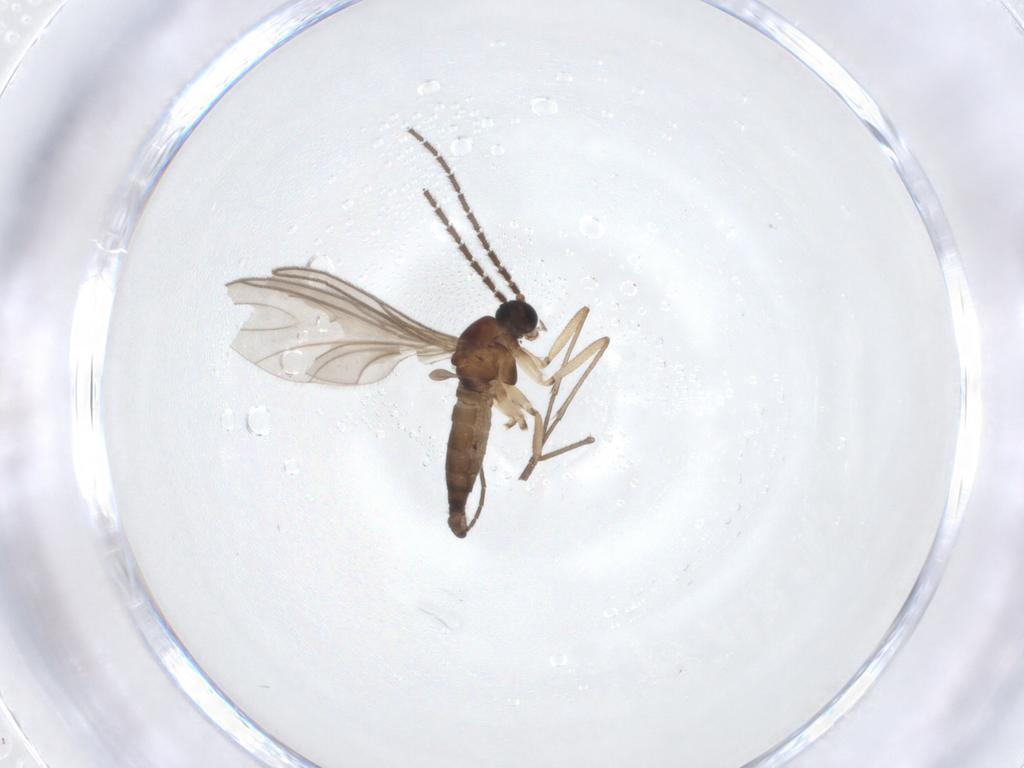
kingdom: Animalia
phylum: Arthropoda
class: Insecta
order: Diptera
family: Sciaridae
